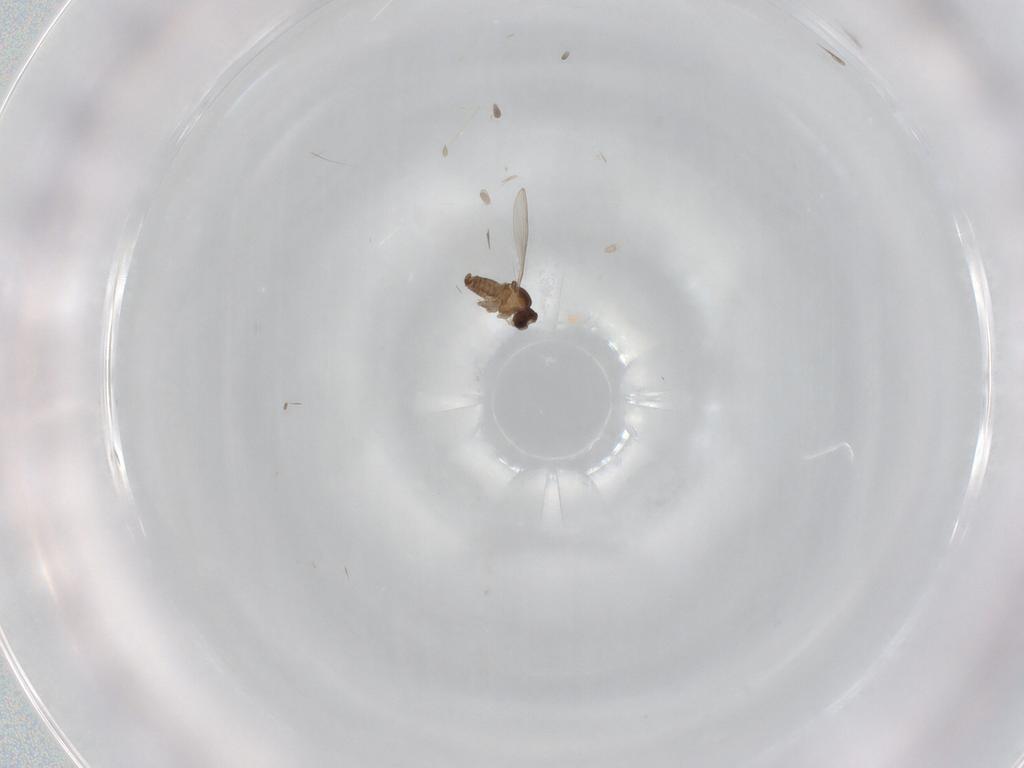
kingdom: Animalia
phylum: Arthropoda
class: Insecta
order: Diptera
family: Cecidomyiidae
